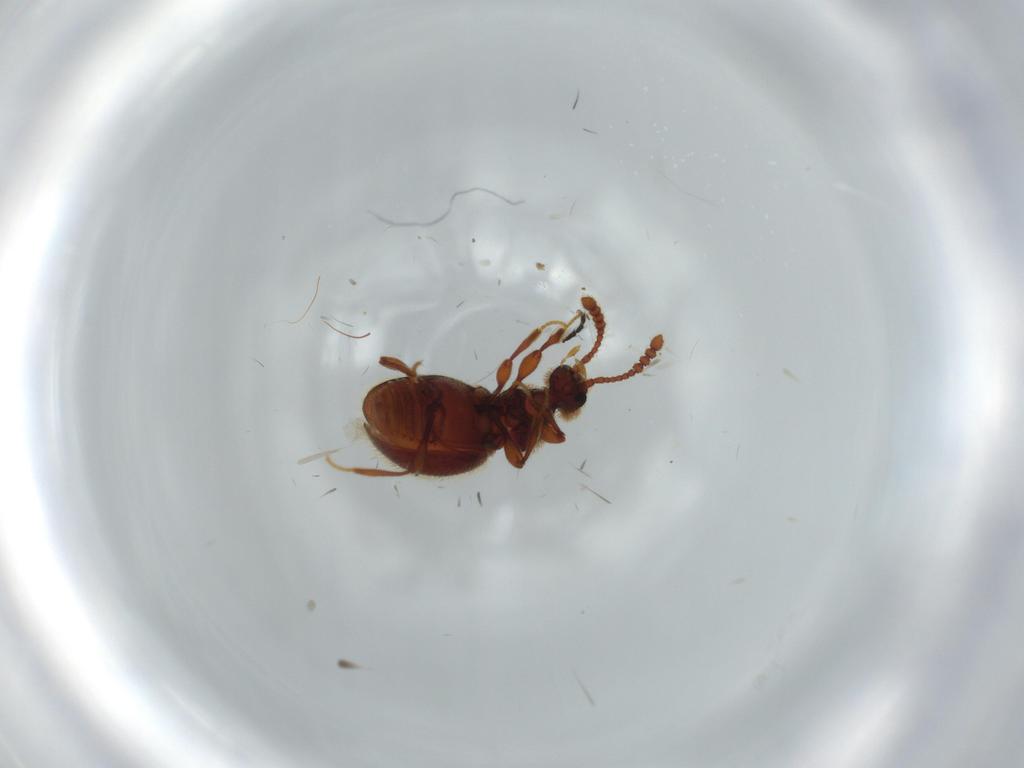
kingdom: Animalia
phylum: Arthropoda
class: Insecta
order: Coleoptera
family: Chrysomelidae
